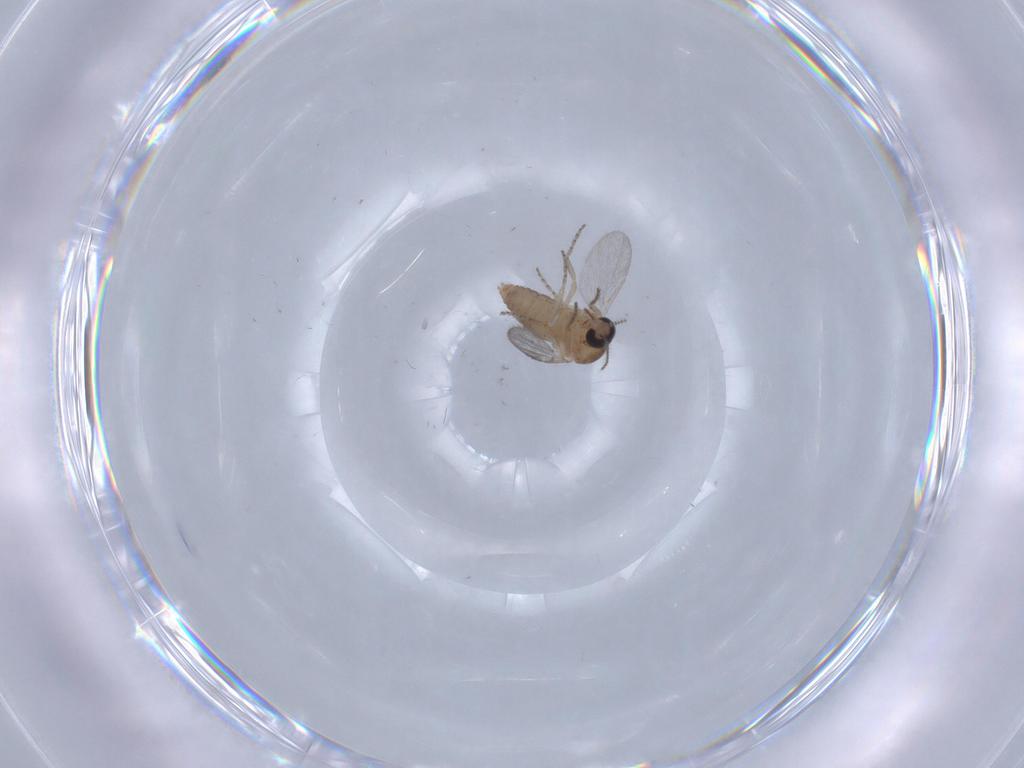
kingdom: Animalia
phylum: Arthropoda
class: Insecta
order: Diptera
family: Ceratopogonidae
